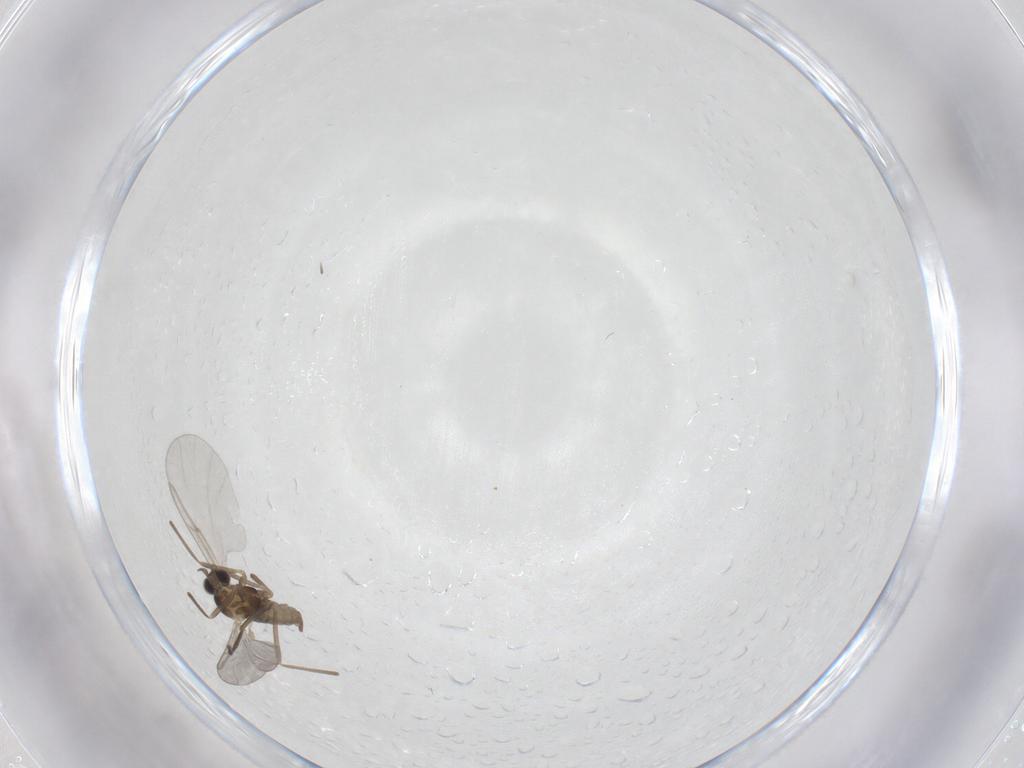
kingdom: Animalia
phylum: Arthropoda
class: Insecta
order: Diptera
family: Cecidomyiidae
